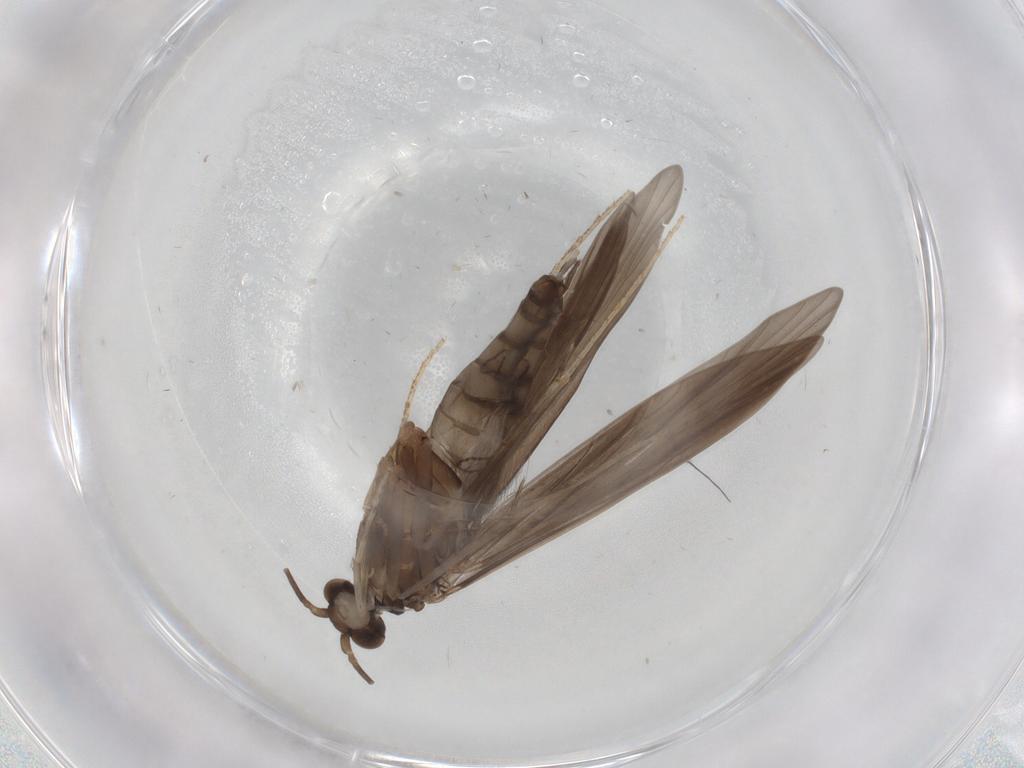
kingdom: Animalia
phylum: Arthropoda
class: Insecta
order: Trichoptera
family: Xiphocentronidae
